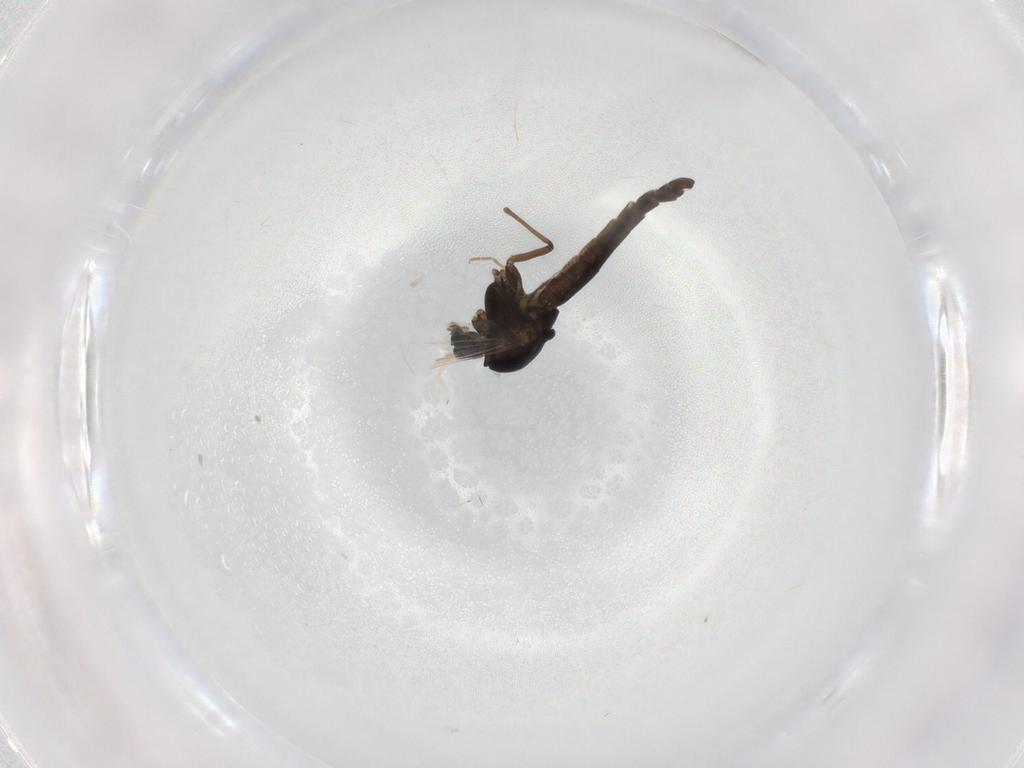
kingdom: Animalia
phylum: Arthropoda
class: Insecta
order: Diptera
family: Chironomidae
